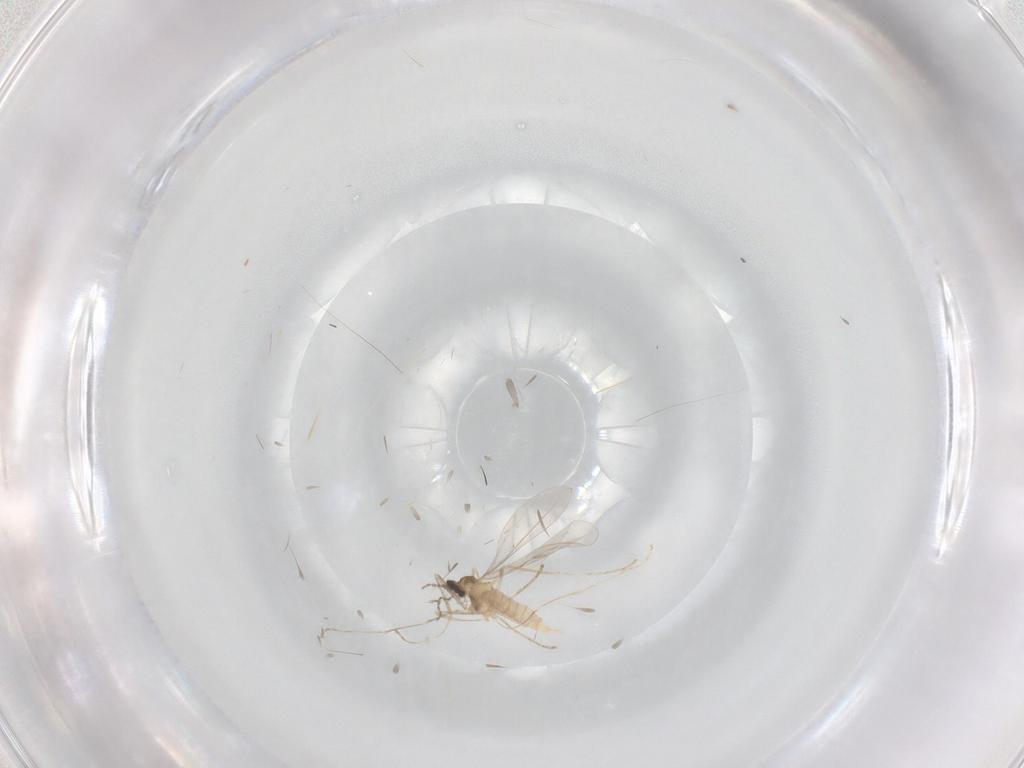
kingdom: Animalia
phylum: Arthropoda
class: Insecta
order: Diptera
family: Cecidomyiidae
